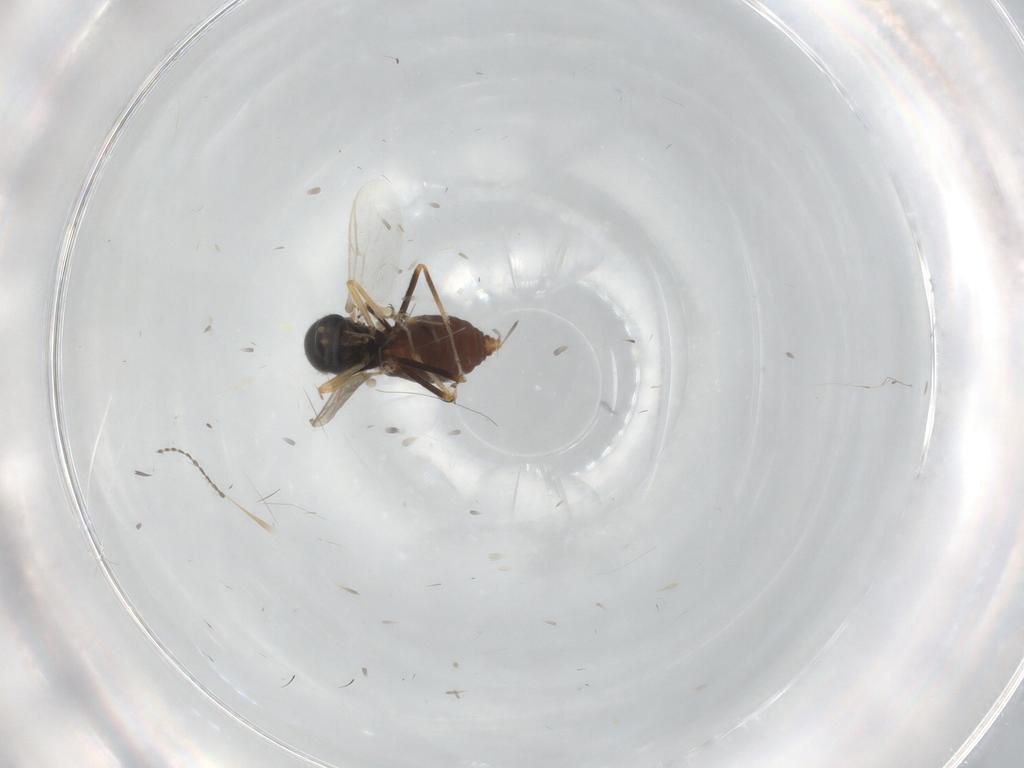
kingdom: Animalia
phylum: Arthropoda
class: Insecta
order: Diptera
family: Ceratopogonidae
